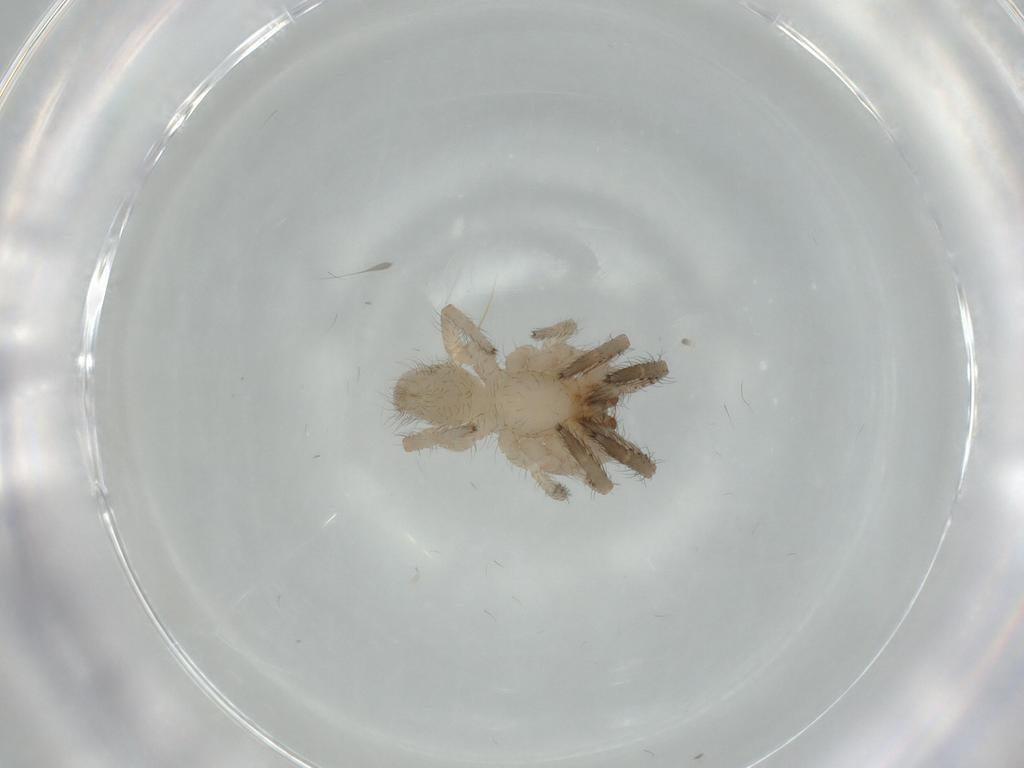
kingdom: Animalia
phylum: Arthropoda
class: Arachnida
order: Araneae
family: Segestriidae
